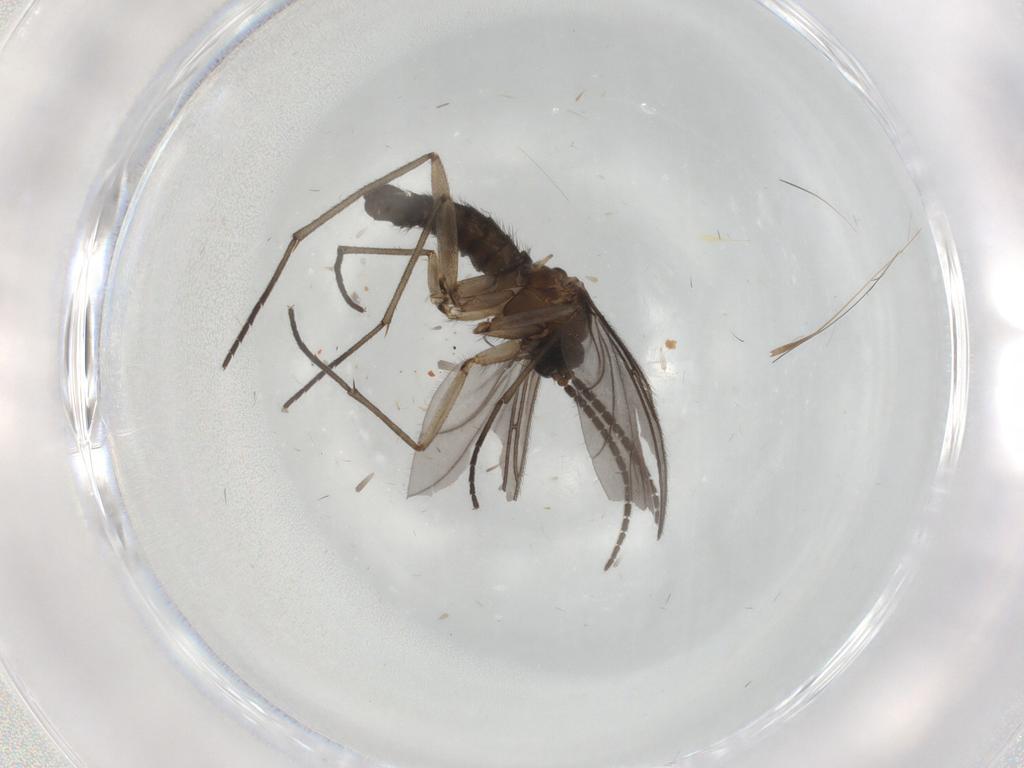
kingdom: Animalia
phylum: Arthropoda
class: Insecta
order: Diptera
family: Sciaridae
